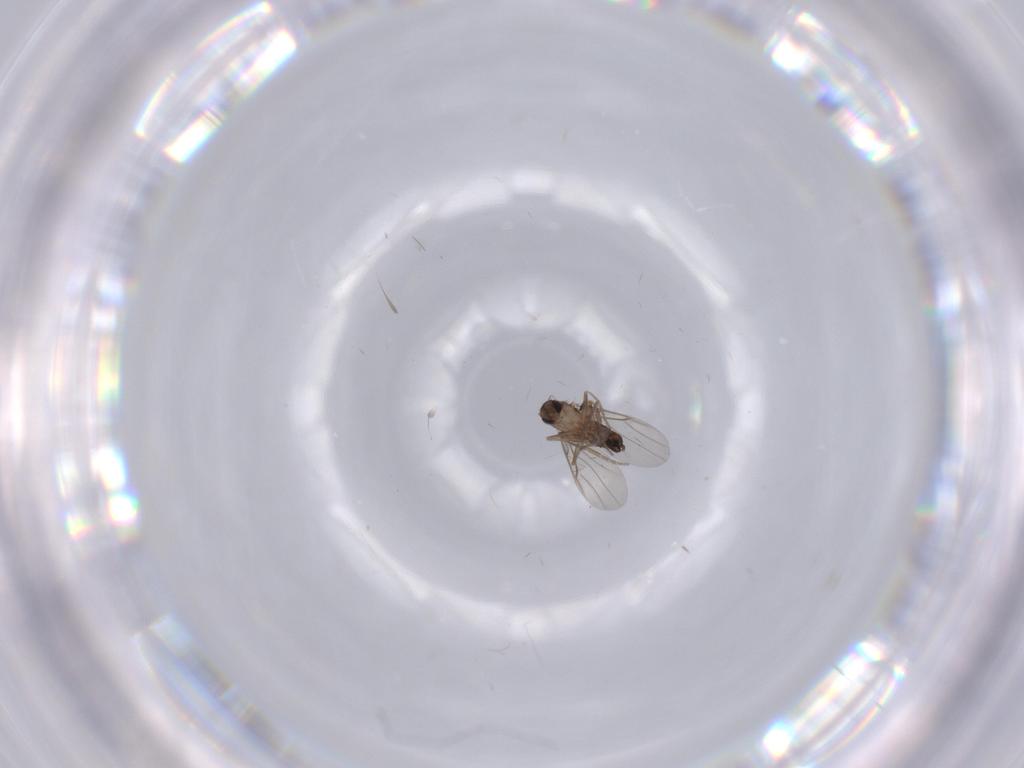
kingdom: Animalia
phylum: Arthropoda
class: Insecta
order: Diptera
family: Phoridae
